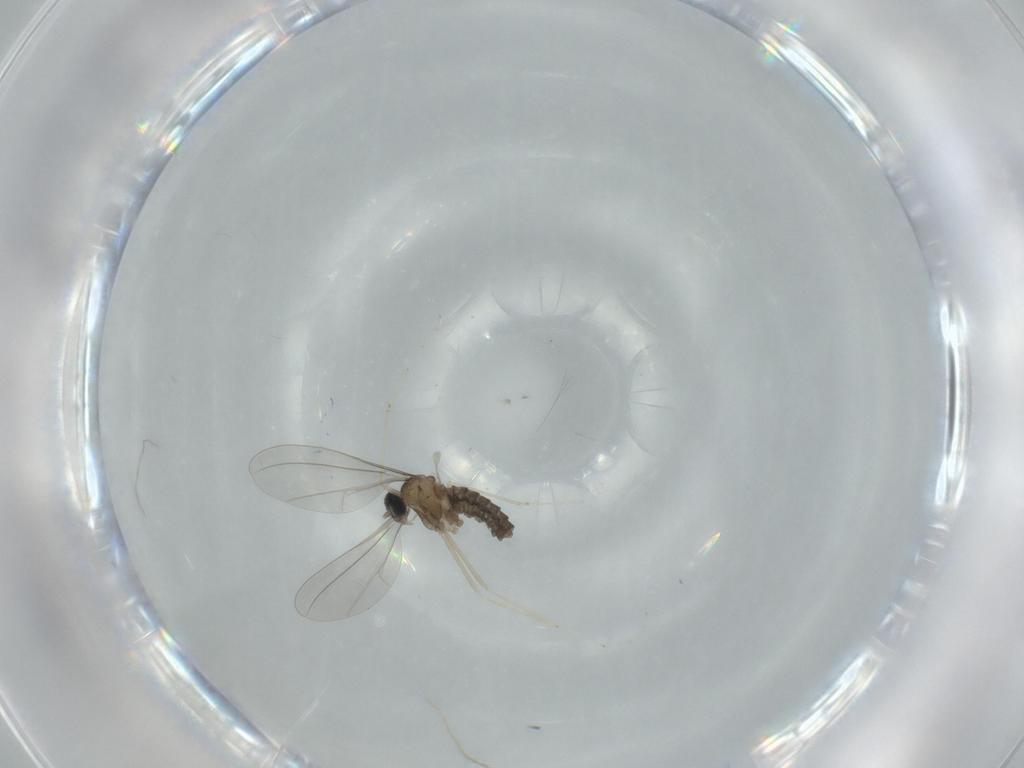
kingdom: Animalia
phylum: Arthropoda
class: Insecta
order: Diptera
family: Cecidomyiidae
